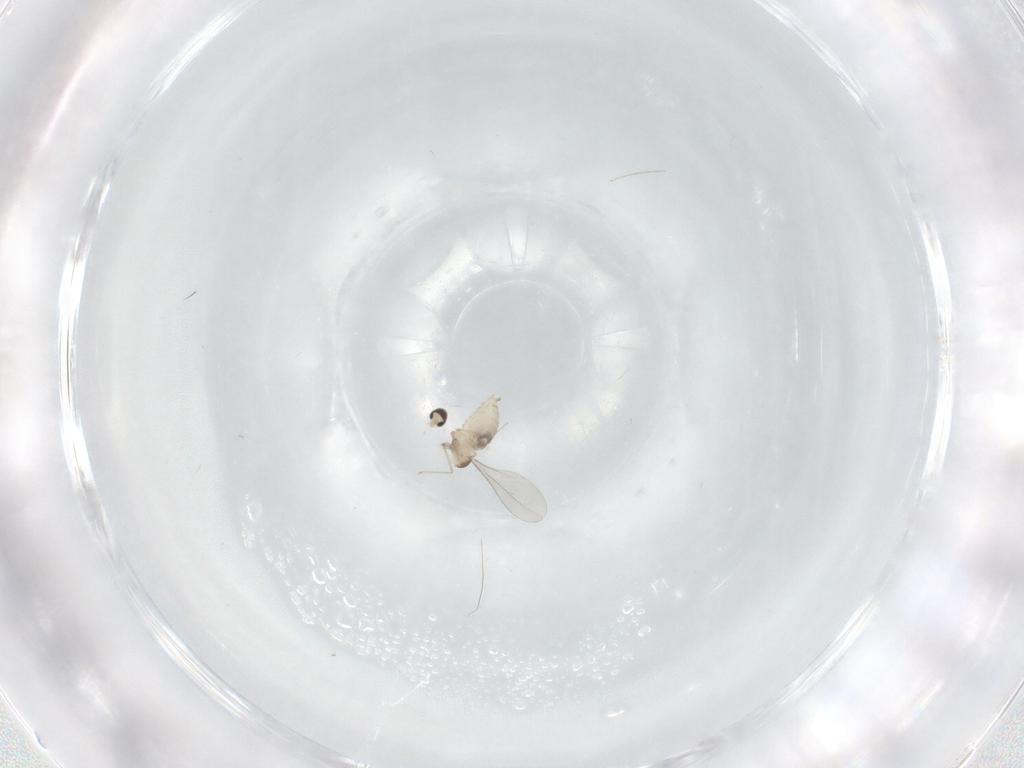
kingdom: Animalia
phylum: Arthropoda
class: Insecta
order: Diptera
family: Cecidomyiidae
